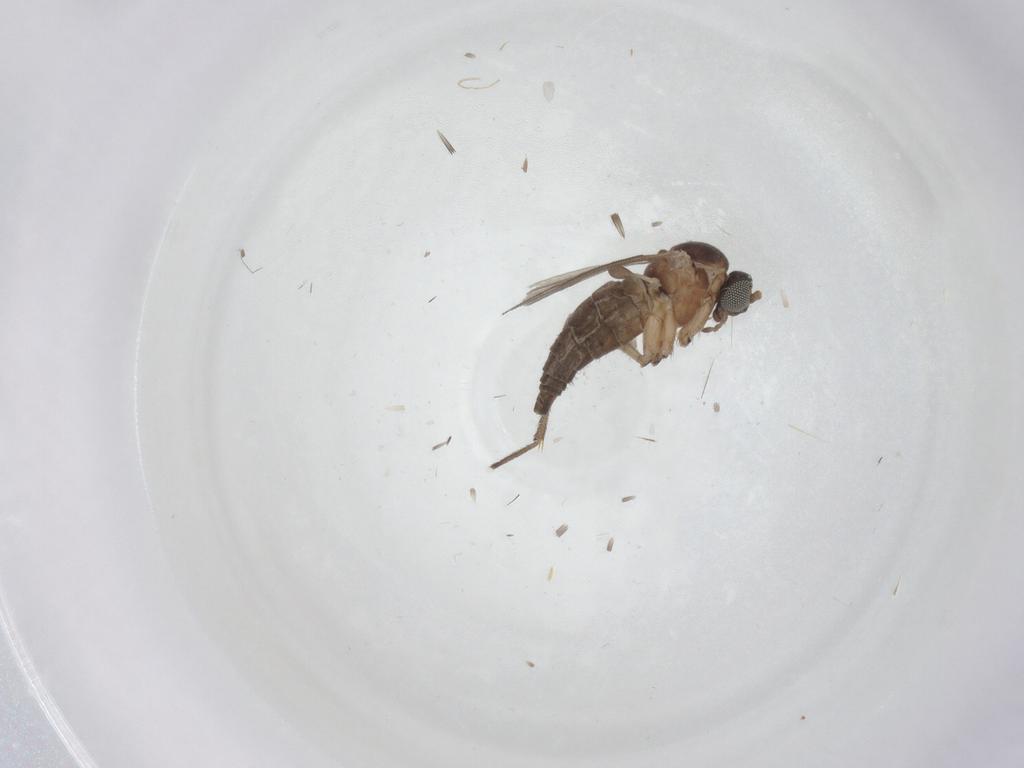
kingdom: Animalia
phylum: Arthropoda
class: Insecta
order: Diptera
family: Sciaridae
